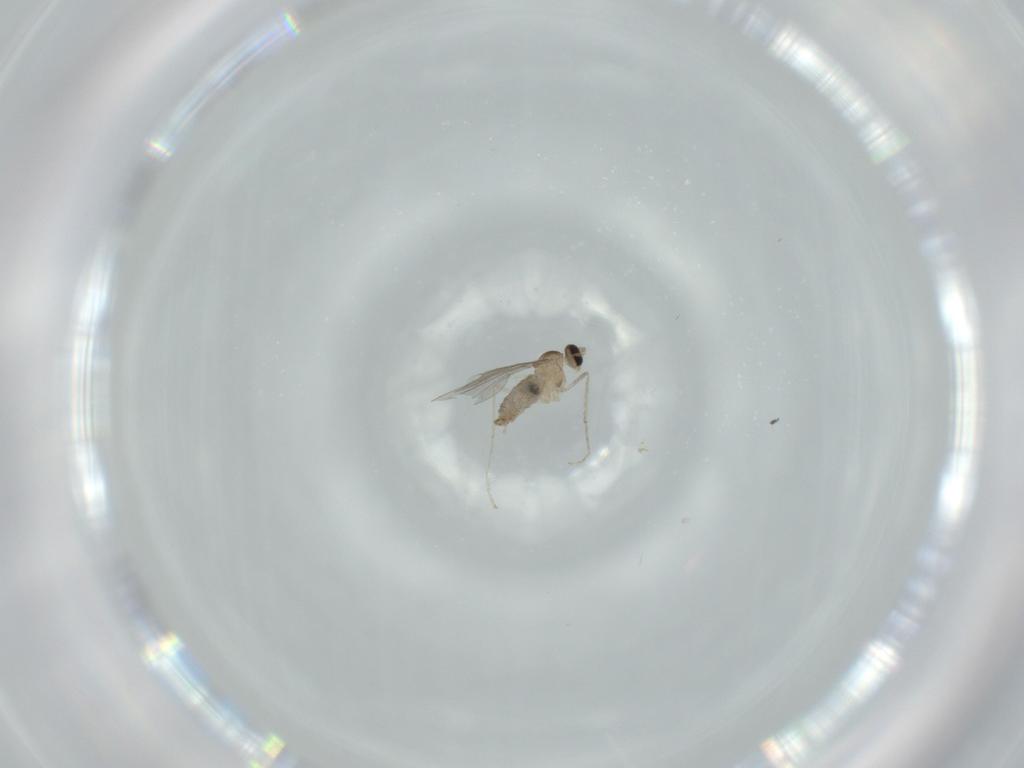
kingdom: Animalia
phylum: Arthropoda
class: Insecta
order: Diptera
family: Cecidomyiidae
